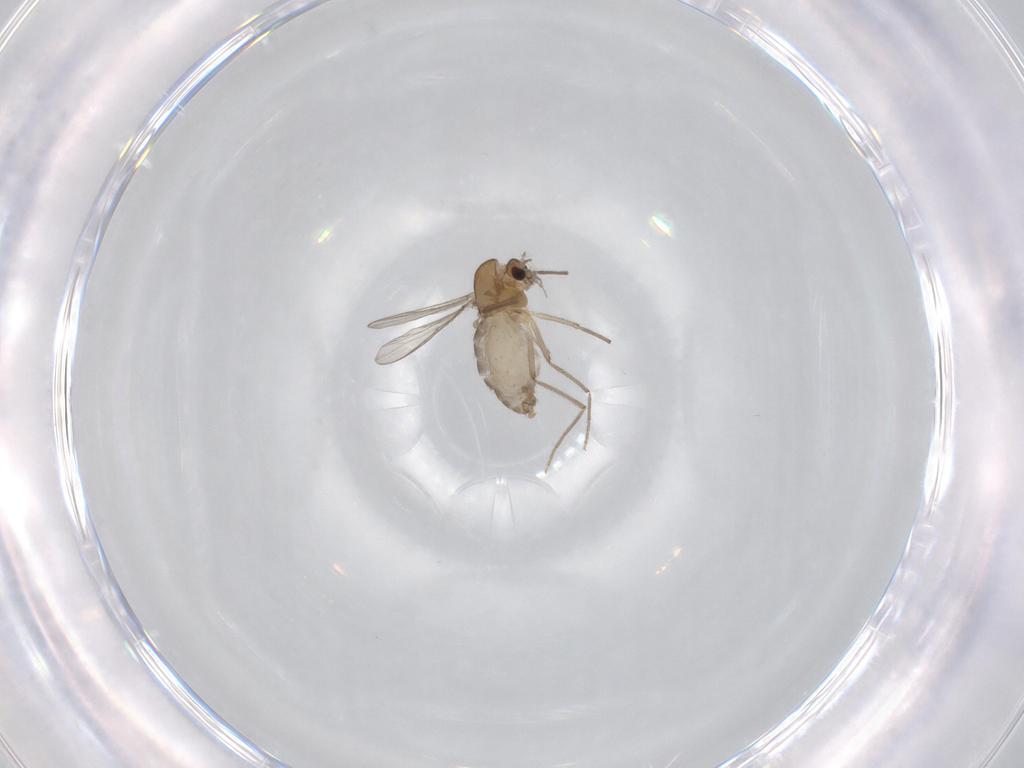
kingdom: Animalia
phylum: Arthropoda
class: Insecta
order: Diptera
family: Chironomidae
